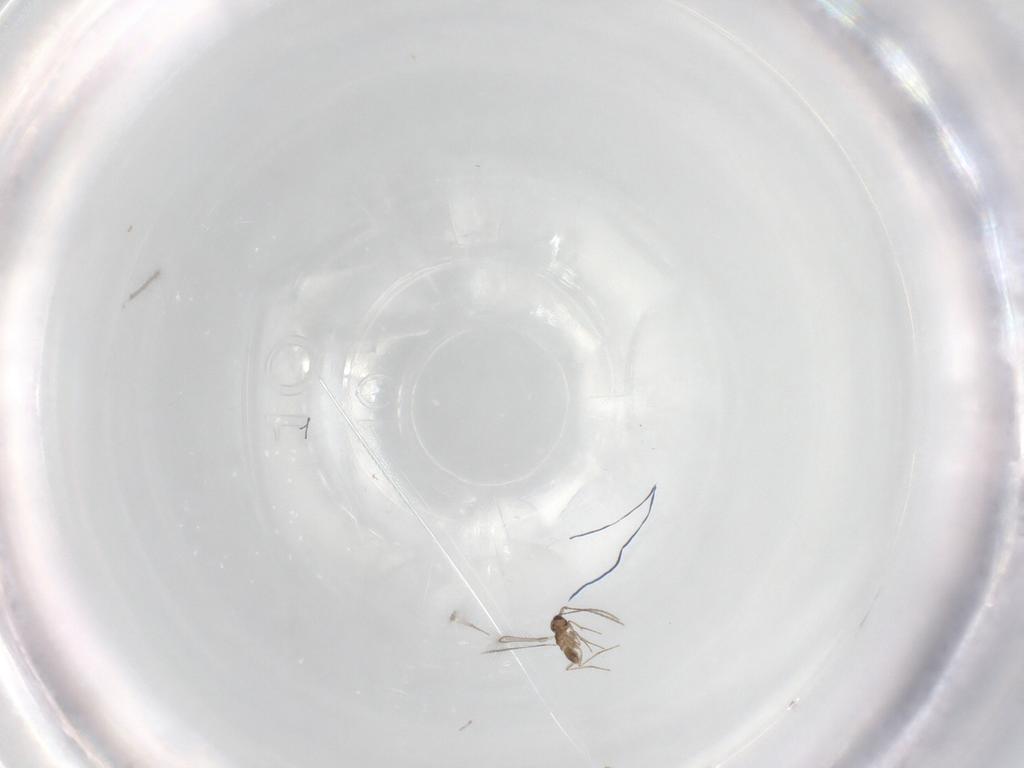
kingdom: Animalia
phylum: Arthropoda
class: Insecta
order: Hymenoptera
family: Mymaridae
